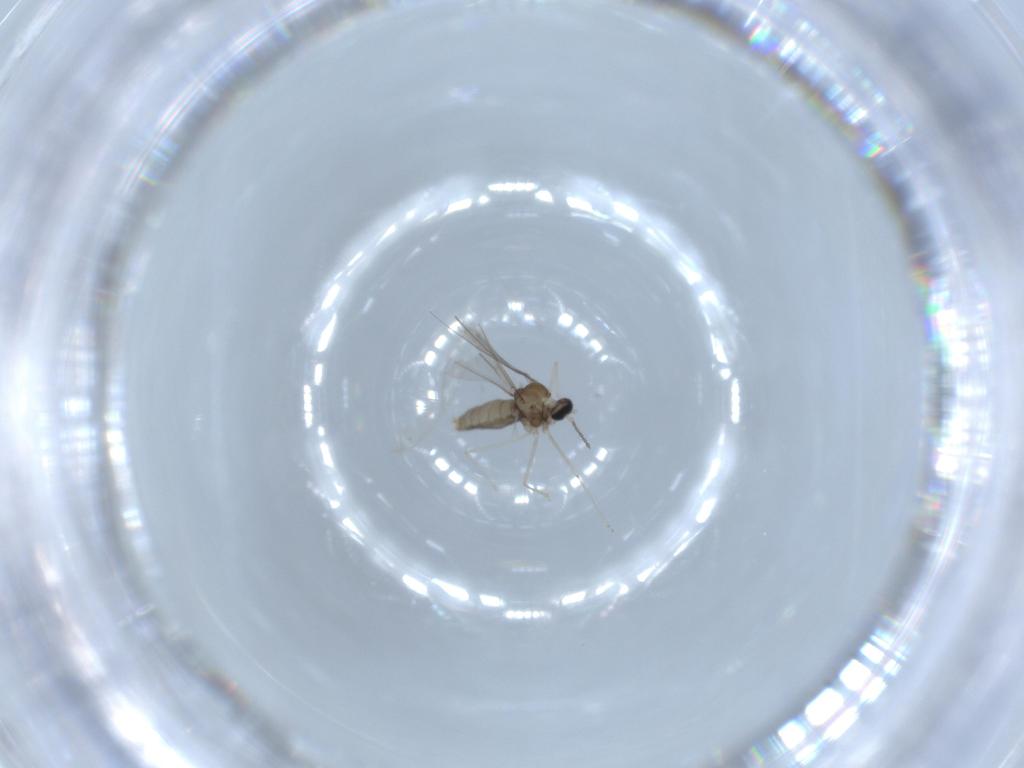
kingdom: Animalia
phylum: Arthropoda
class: Insecta
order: Diptera
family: Cecidomyiidae
